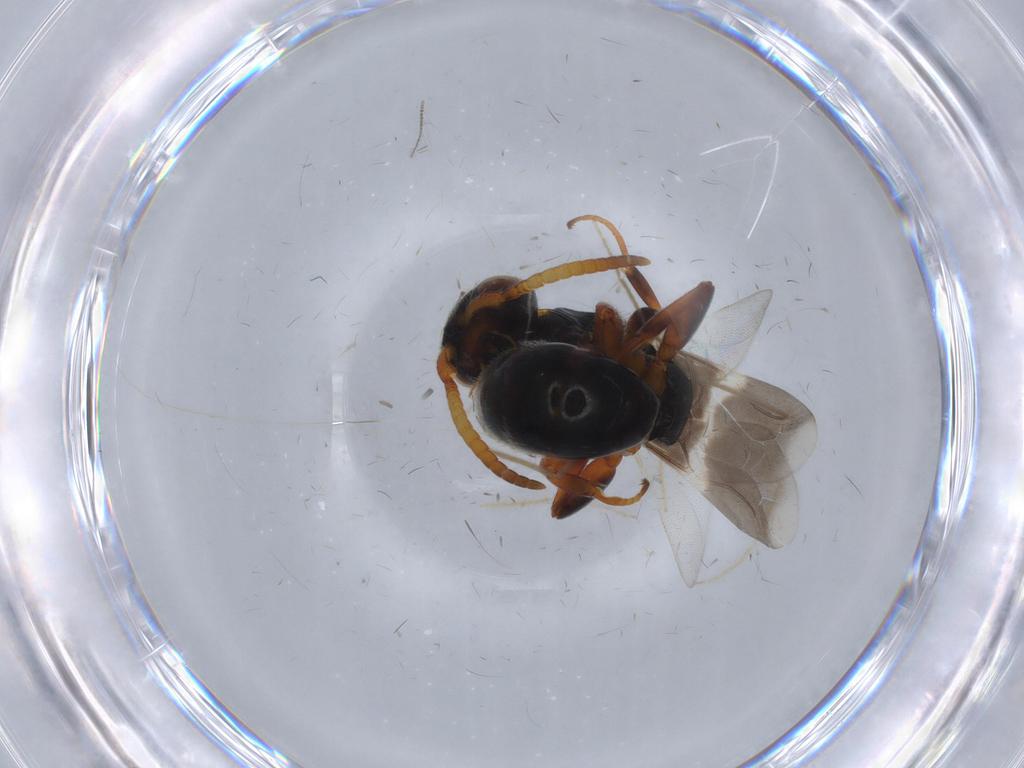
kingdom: Animalia
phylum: Arthropoda
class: Insecta
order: Hymenoptera
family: Bethylidae
